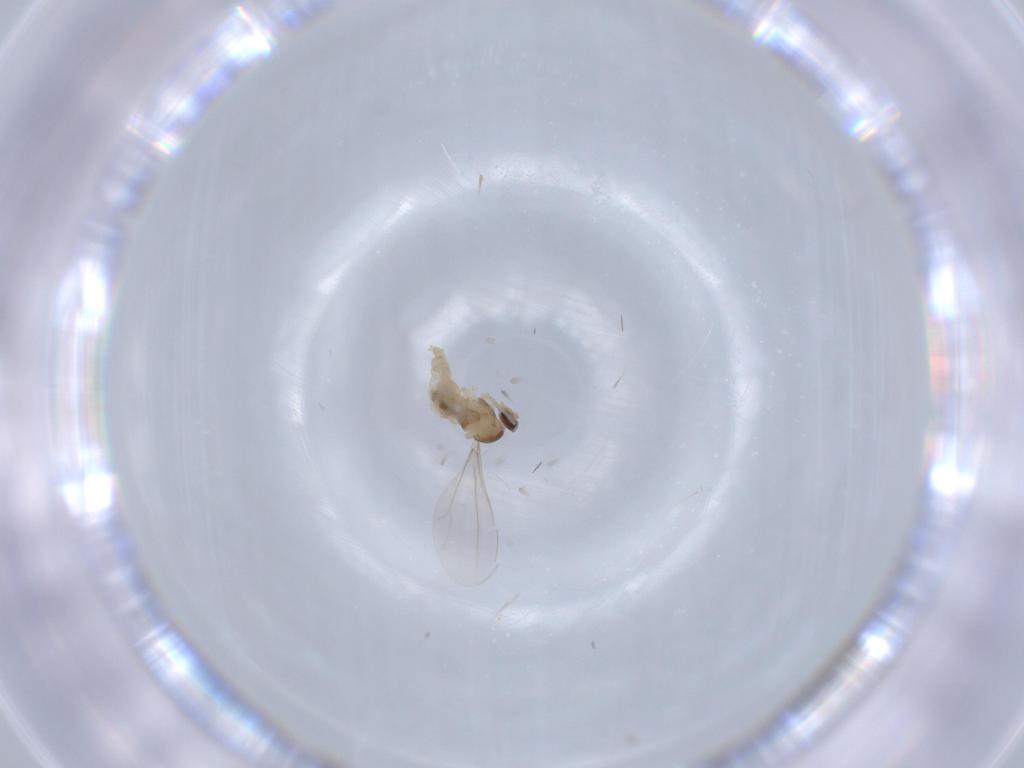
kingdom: Animalia
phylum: Arthropoda
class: Insecta
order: Diptera
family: Cecidomyiidae
